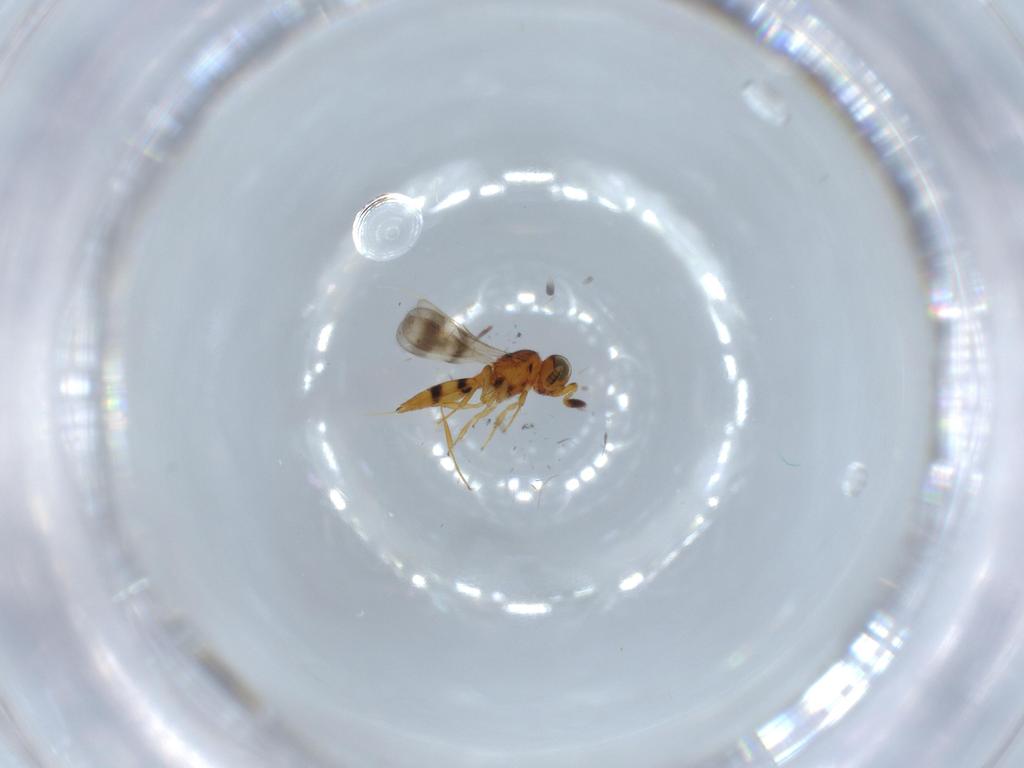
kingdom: Animalia
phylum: Arthropoda
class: Insecta
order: Hymenoptera
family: Scelionidae
